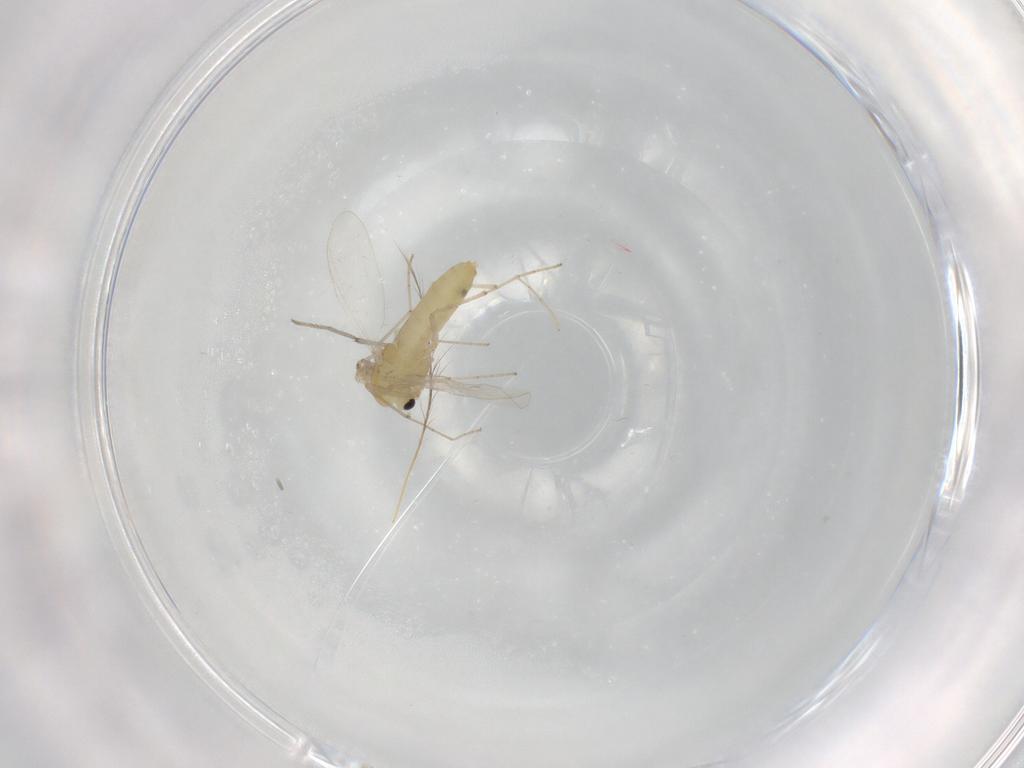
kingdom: Animalia
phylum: Arthropoda
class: Insecta
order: Diptera
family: Chironomidae
